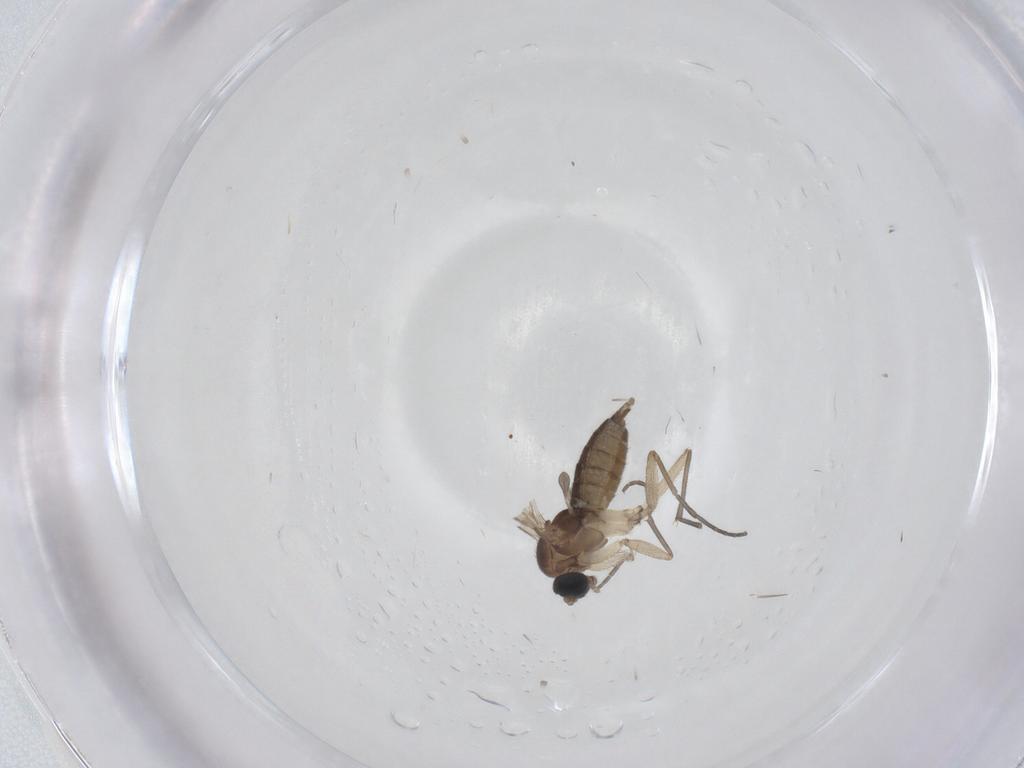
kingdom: Animalia
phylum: Arthropoda
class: Insecta
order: Diptera
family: Sciaridae
